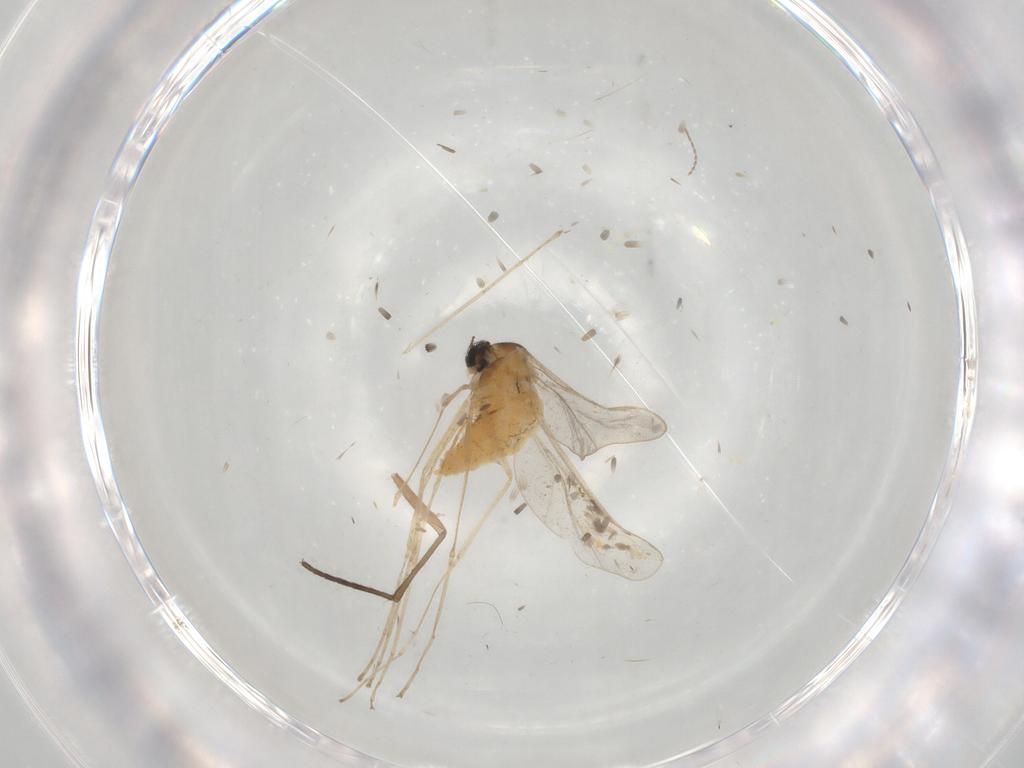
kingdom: Animalia
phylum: Arthropoda
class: Insecta
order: Diptera
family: Cecidomyiidae
